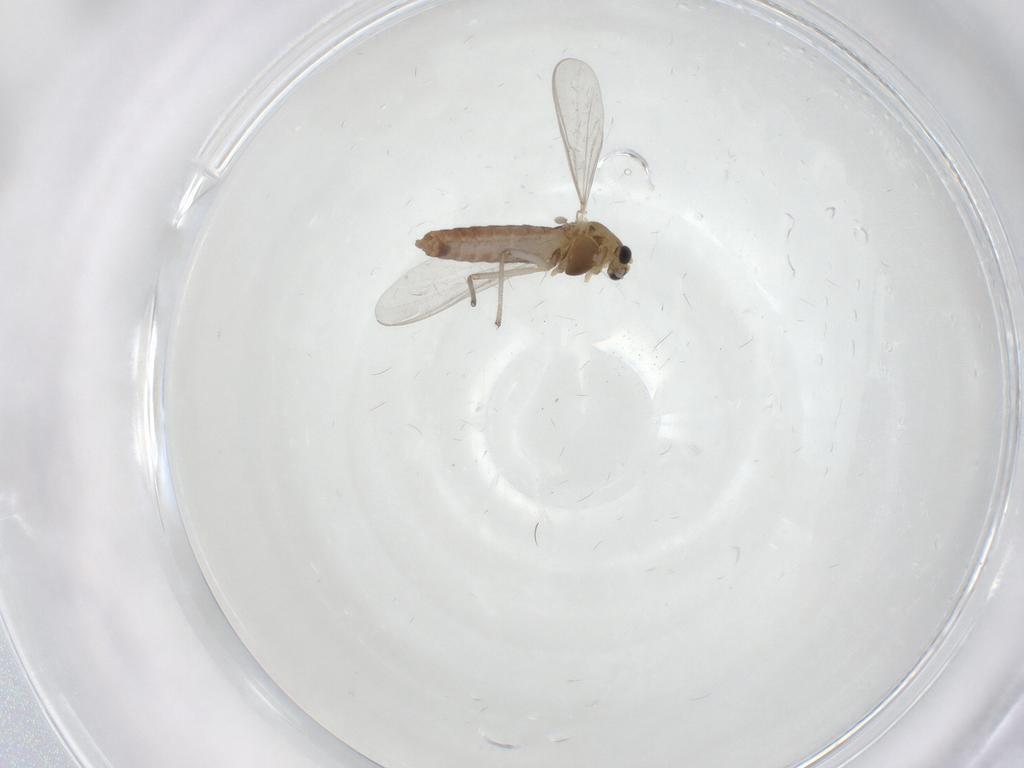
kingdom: Animalia
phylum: Arthropoda
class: Insecta
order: Diptera
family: Chironomidae
